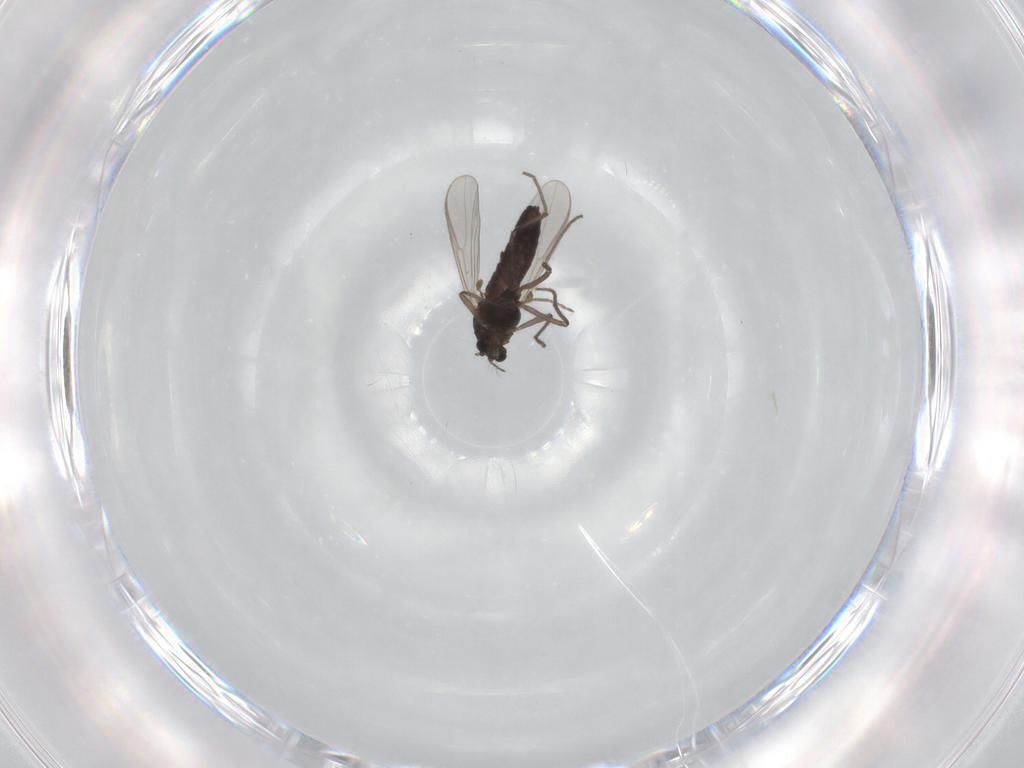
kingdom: Animalia
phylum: Arthropoda
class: Insecta
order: Diptera
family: Chironomidae
